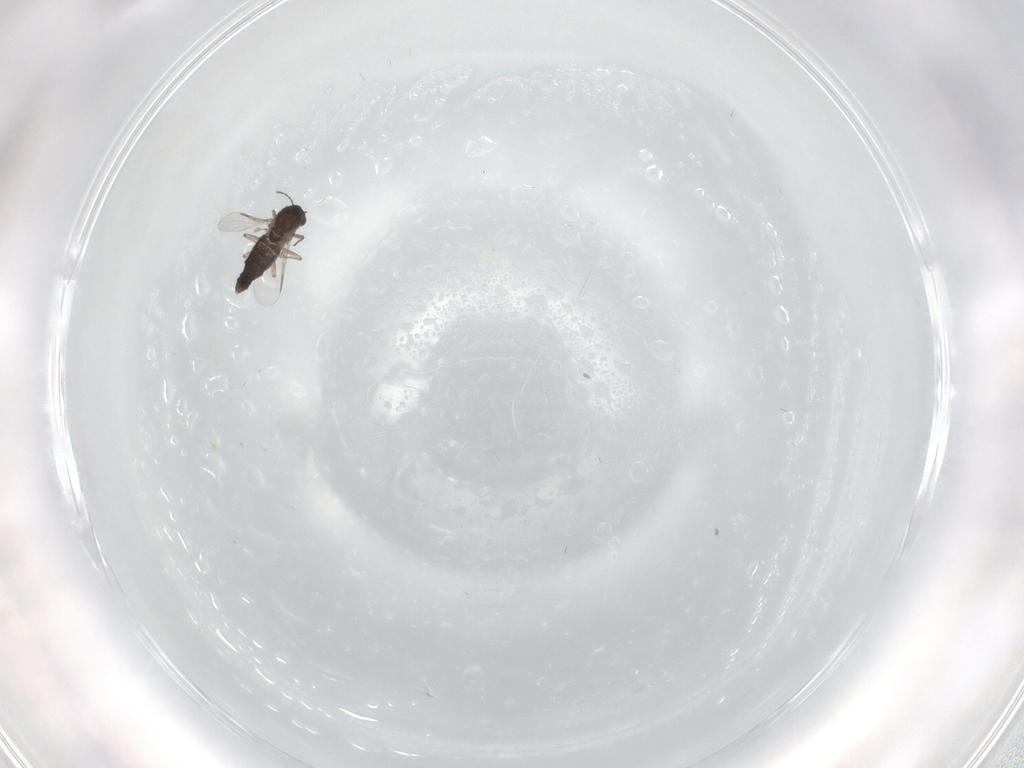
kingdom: Animalia
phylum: Arthropoda
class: Insecta
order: Diptera
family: Chironomidae
